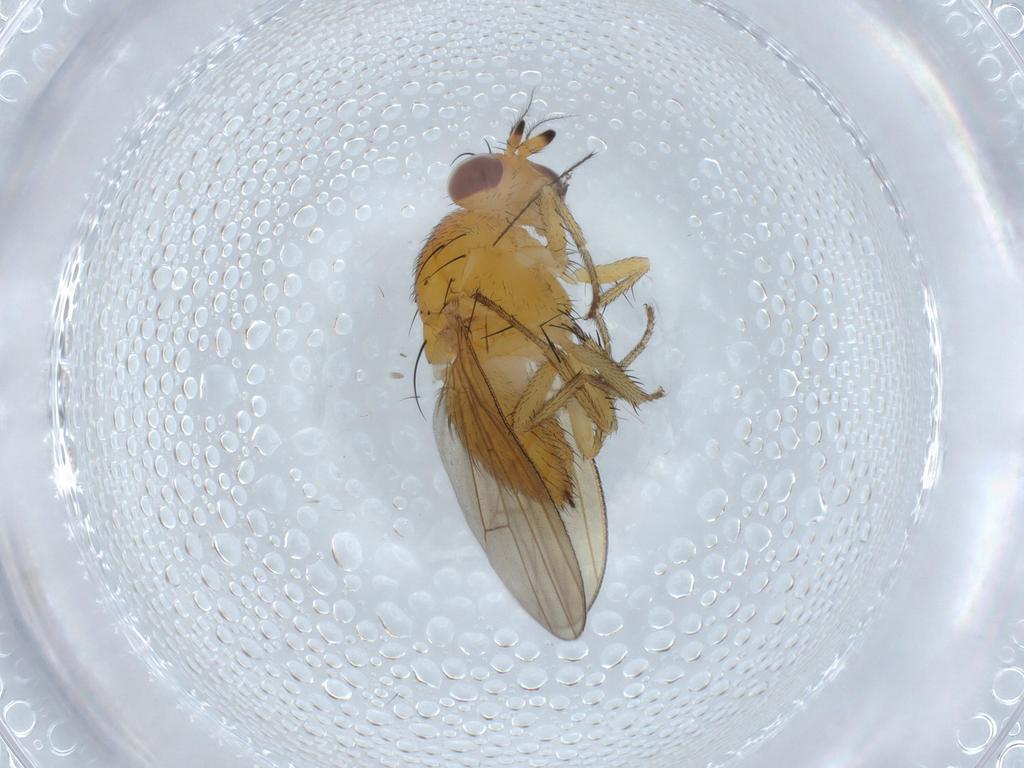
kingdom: Animalia
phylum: Arthropoda
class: Insecta
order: Diptera
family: Lauxaniidae
